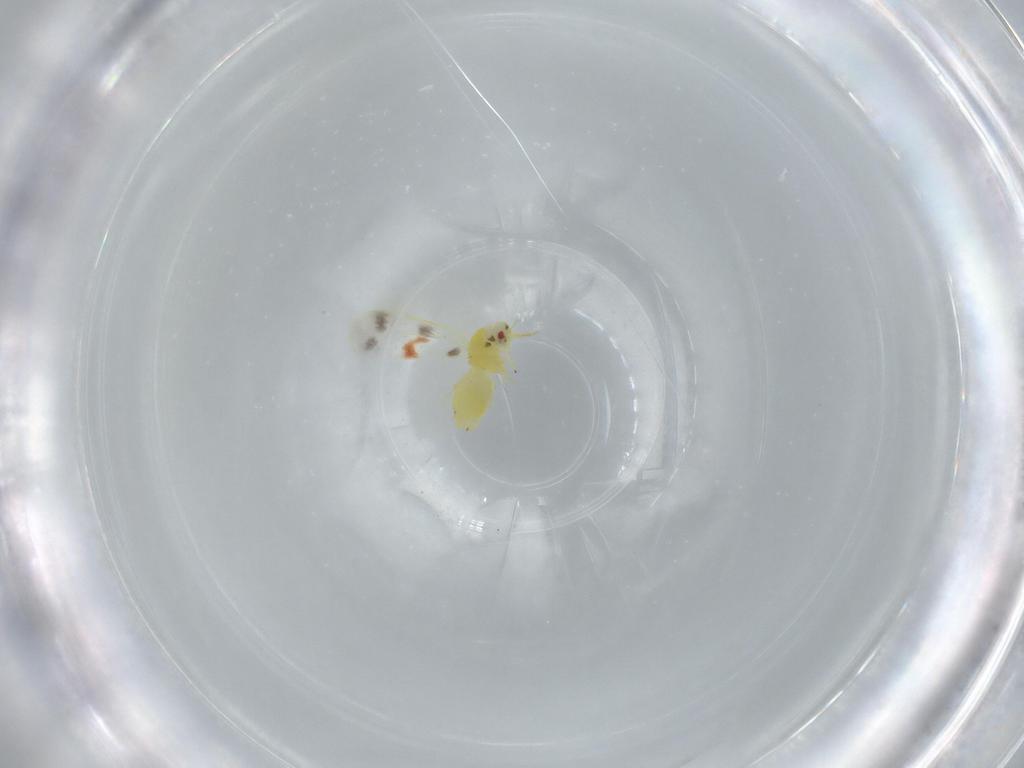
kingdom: Animalia
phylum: Arthropoda
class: Insecta
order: Hemiptera
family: Aleyrodidae
